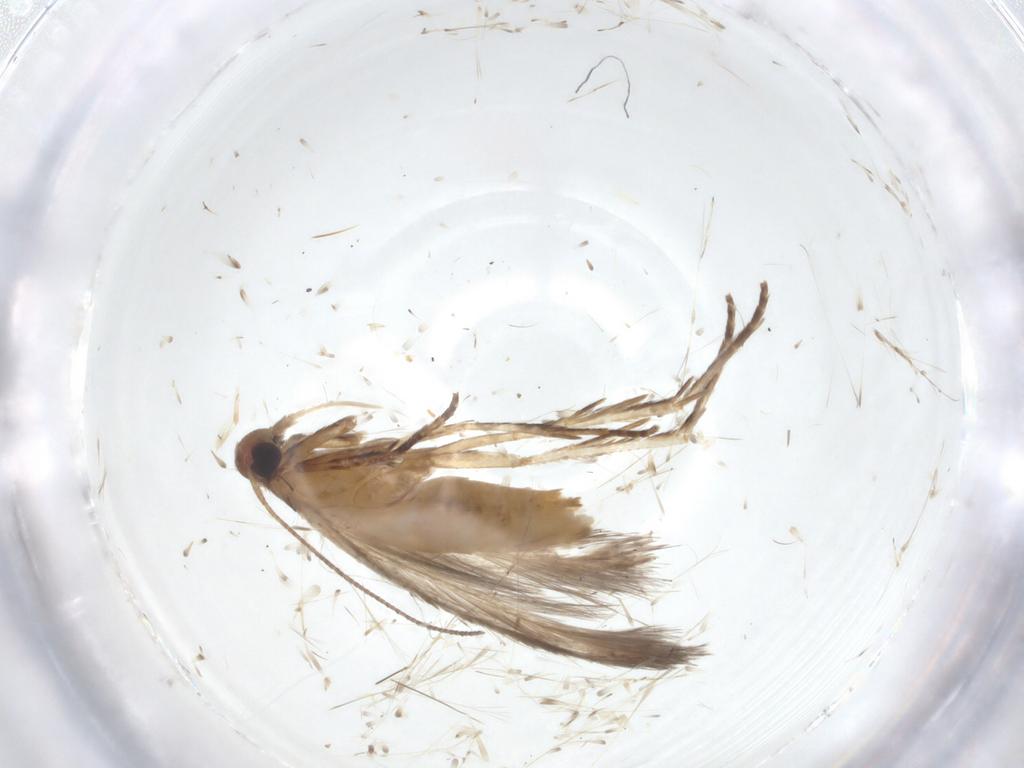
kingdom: Animalia
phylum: Arthropoda
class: Insecta
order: Lepidoptera
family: Cosmopterigidae
